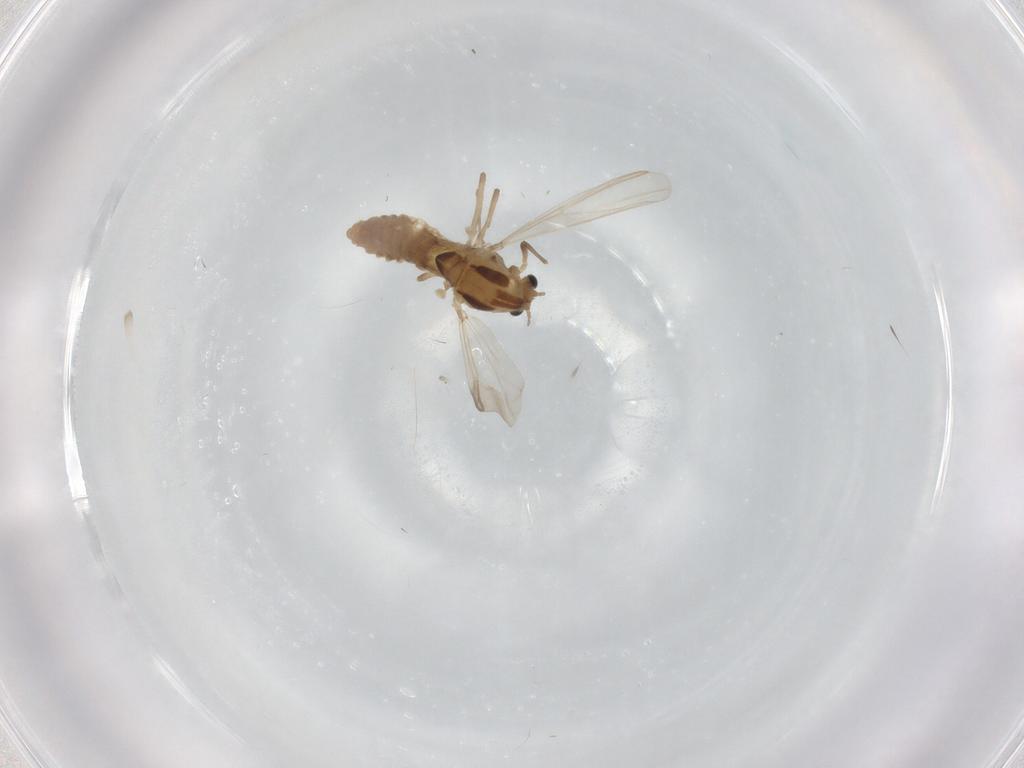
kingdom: Animalia
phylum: Arthropoda
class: Insecta
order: Diptera
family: Chironomidae
